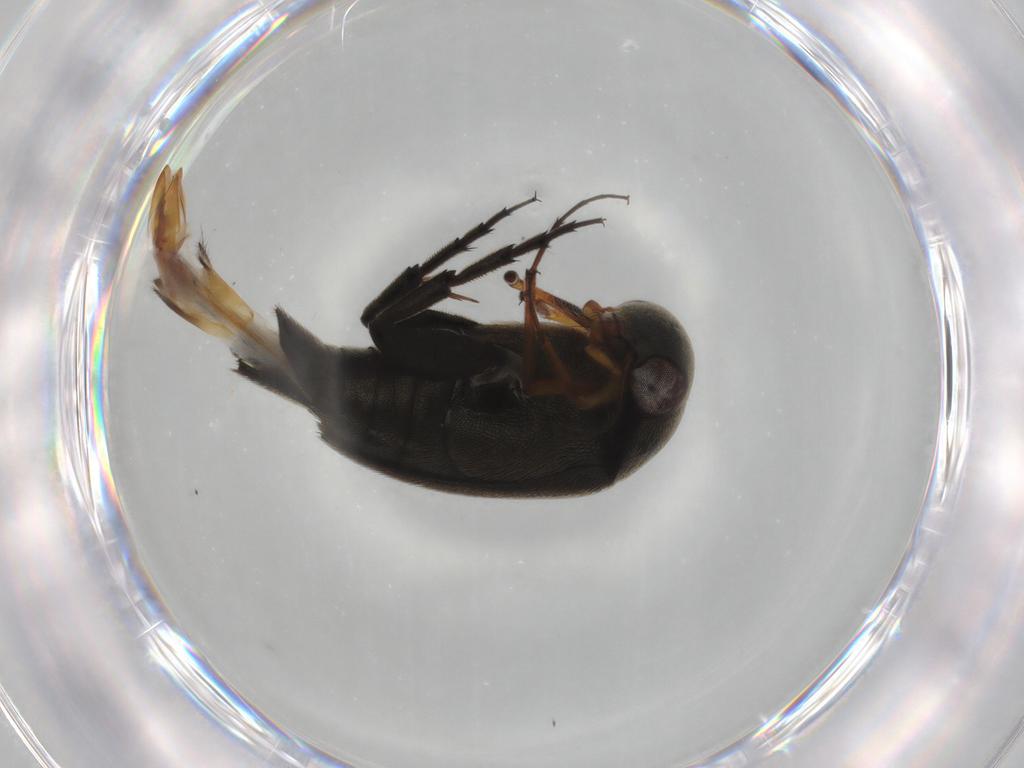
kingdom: Animalia
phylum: Arthropoda
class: Insecta
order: Coleoptera
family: Mordellidae
